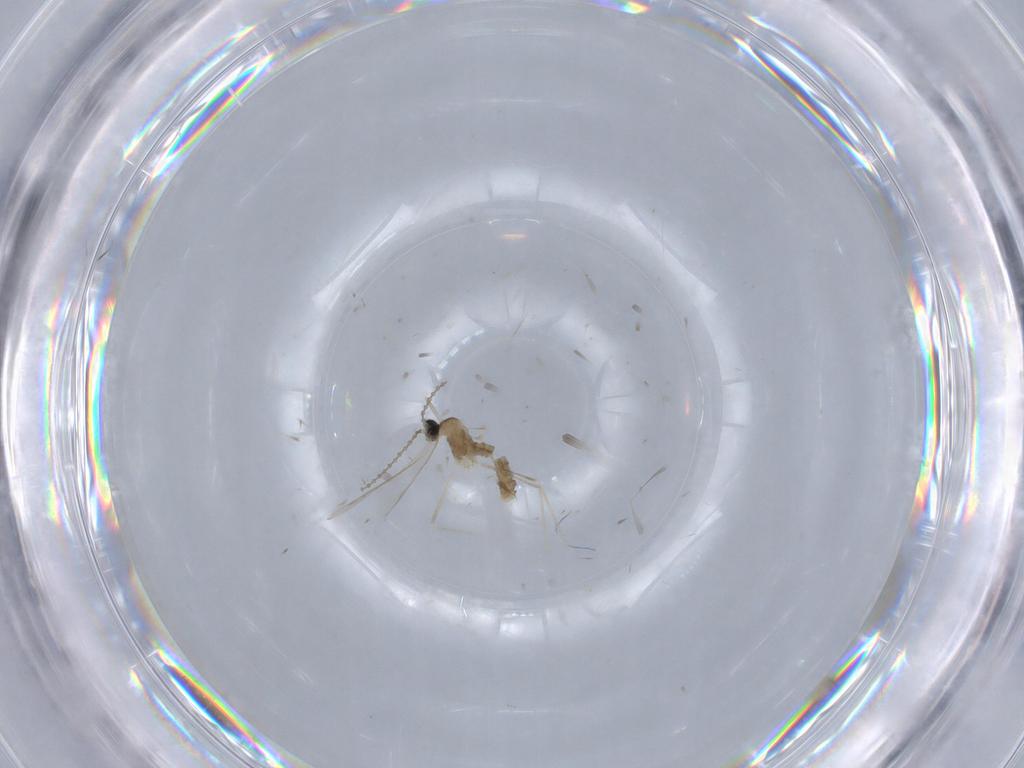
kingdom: Animalia
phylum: Arthropoda
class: Insecta
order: Diptera
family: Cecidomyiidae
